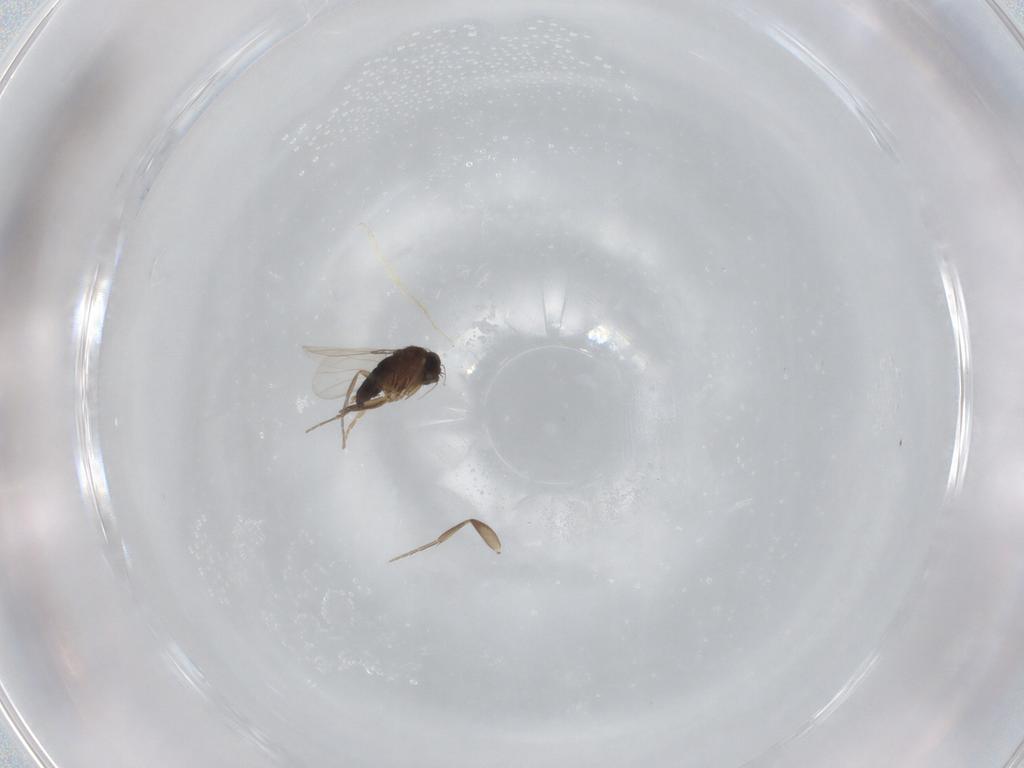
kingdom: Animalia
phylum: Arthropoda
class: Insecta
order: Diptera
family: Phoridae
